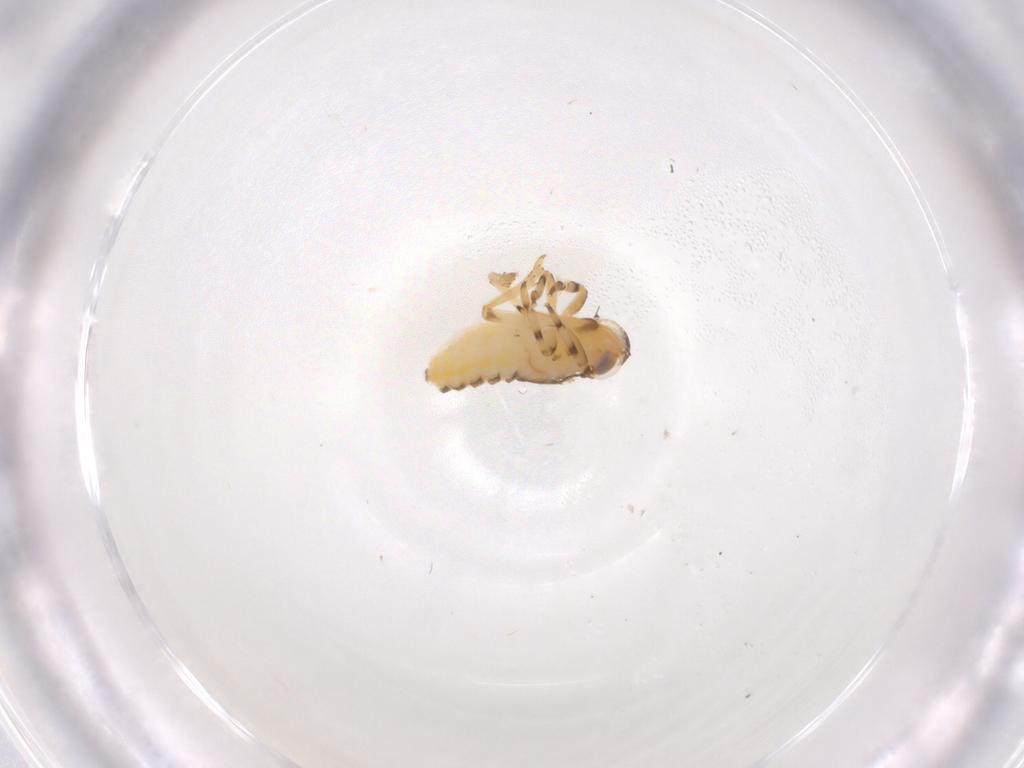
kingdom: Animalia
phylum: Arthropoda
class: Insecta
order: Hemiptera
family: Issidae
